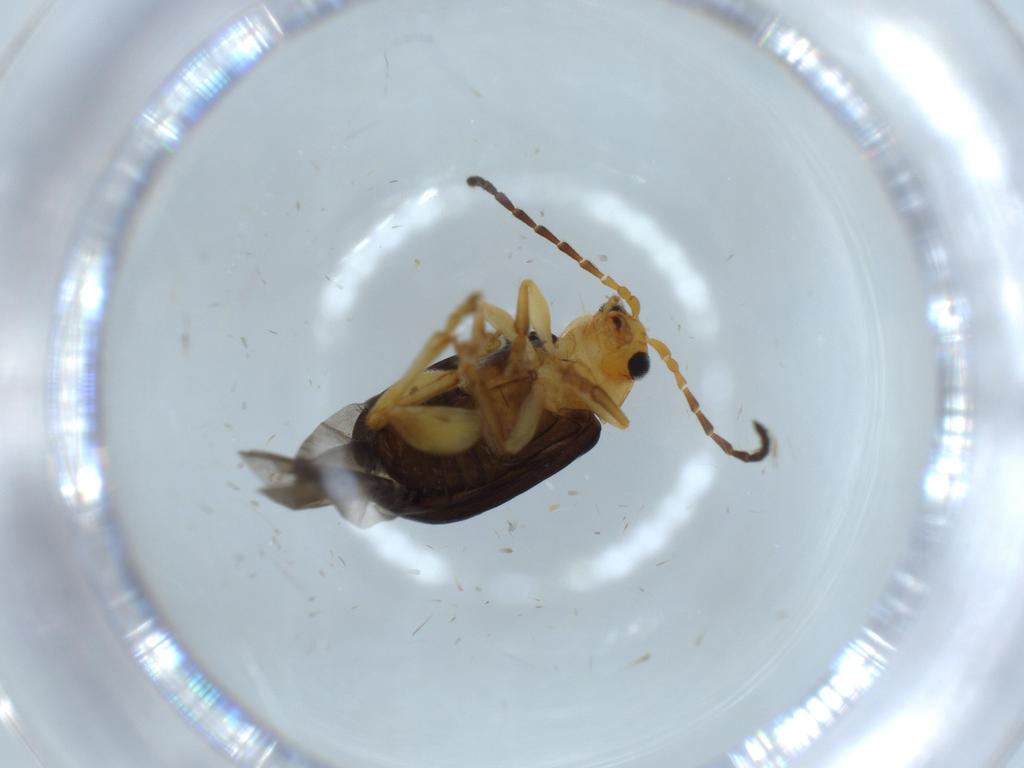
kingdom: Animalia
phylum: Arthropoda
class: Insecta
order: Coleoptera
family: Chrysomelidae
